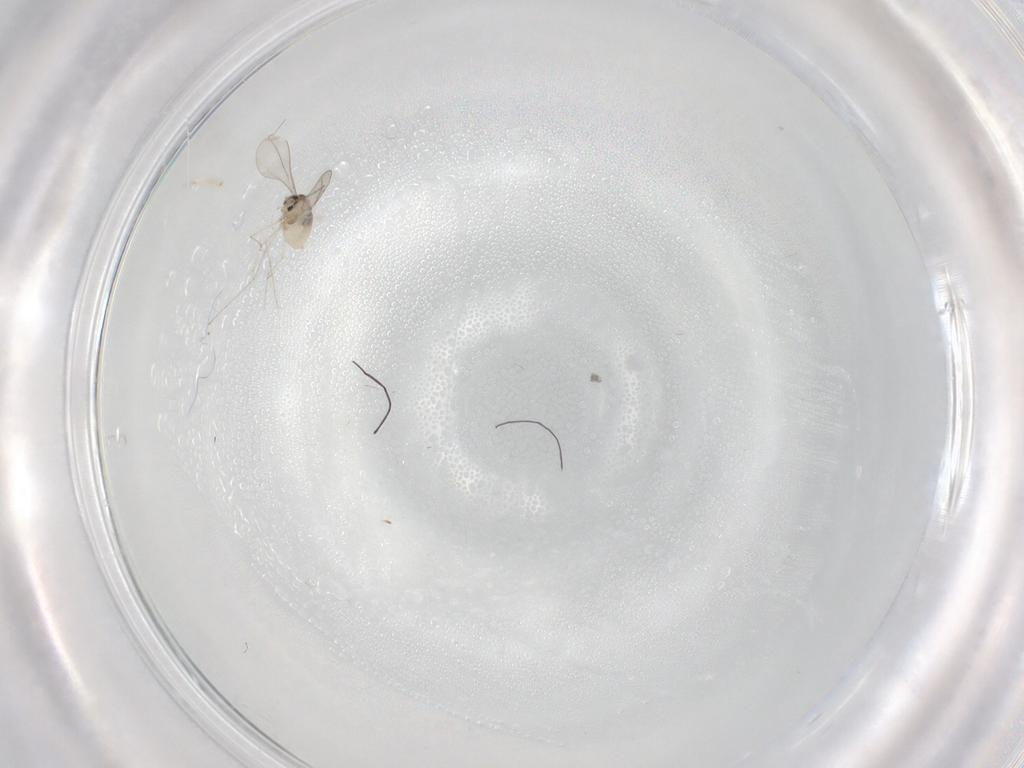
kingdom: Animalia
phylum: Arthropoda
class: Insecta
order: Diptera
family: Cecidomyiidae
